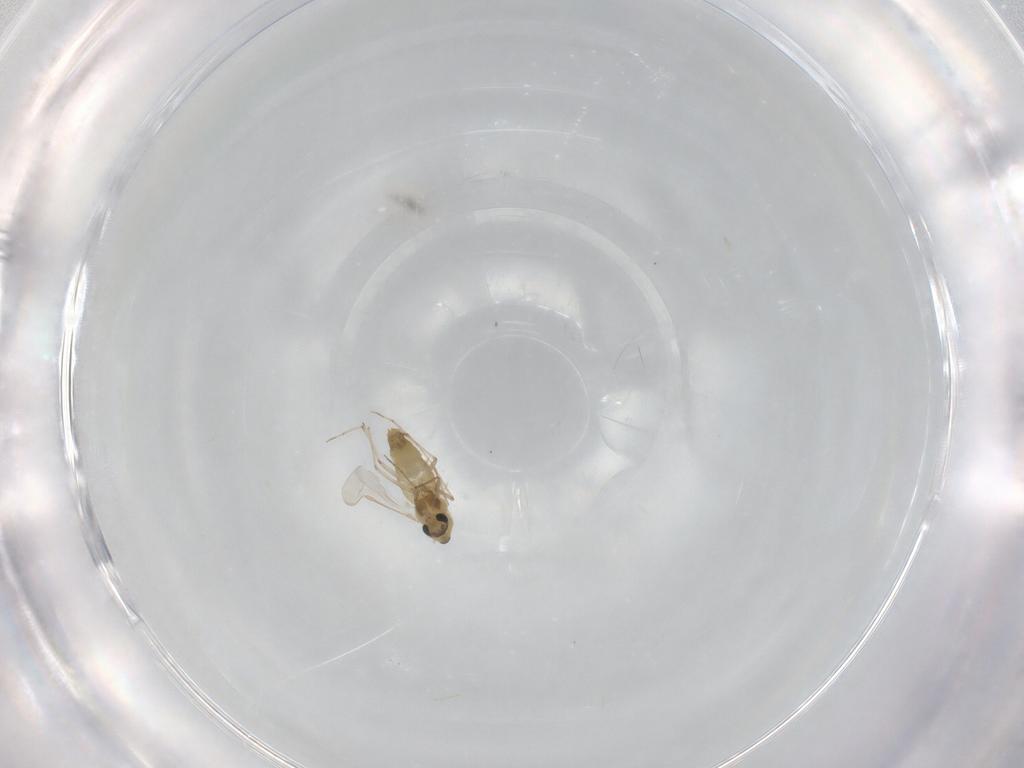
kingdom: Animalia
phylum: Arthropoda
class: Insecta
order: Diptera
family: Chironomidae
